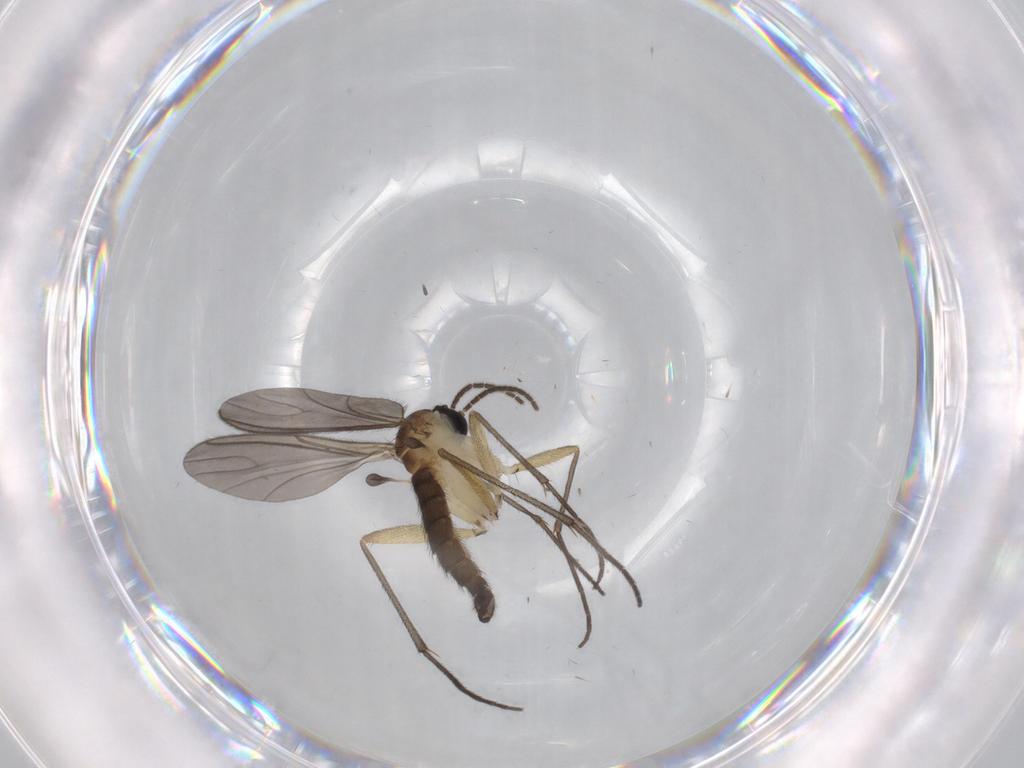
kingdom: Animalia
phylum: Arthropoda
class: Insecta
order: Diptera
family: Sciaridae
